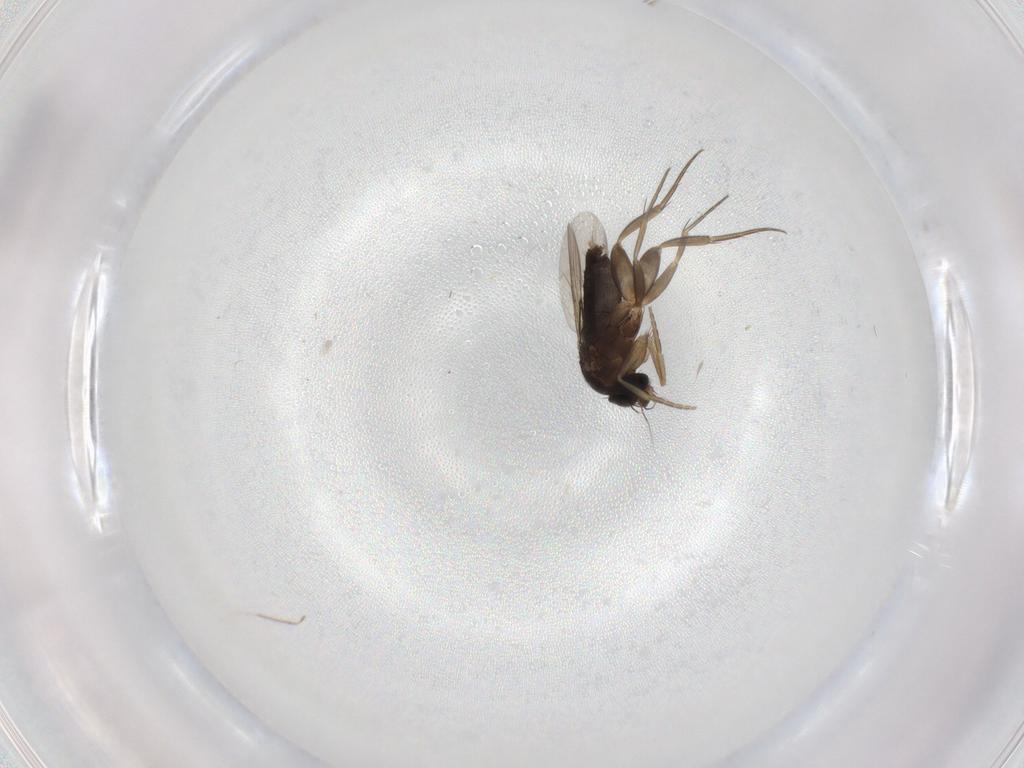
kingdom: Animalia
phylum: Arthropoda
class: Insecta
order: Diptera
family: Phoridae
